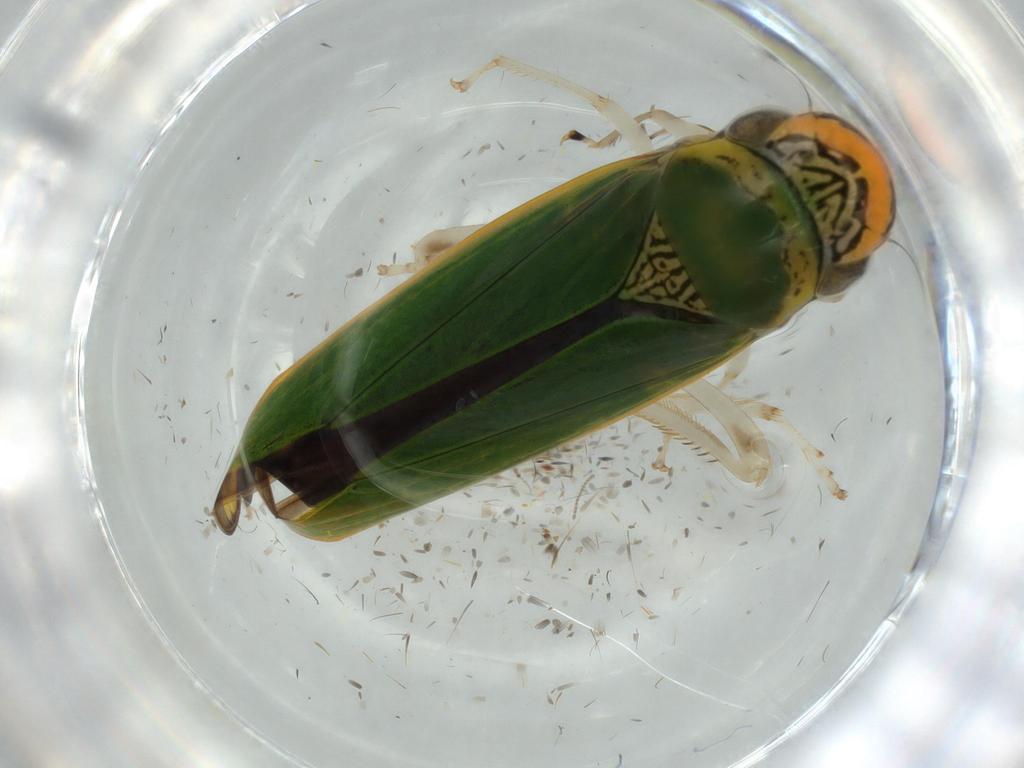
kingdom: Animalia
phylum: Arthropoda
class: Insecta
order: Hemiptera
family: Cicadellidae
